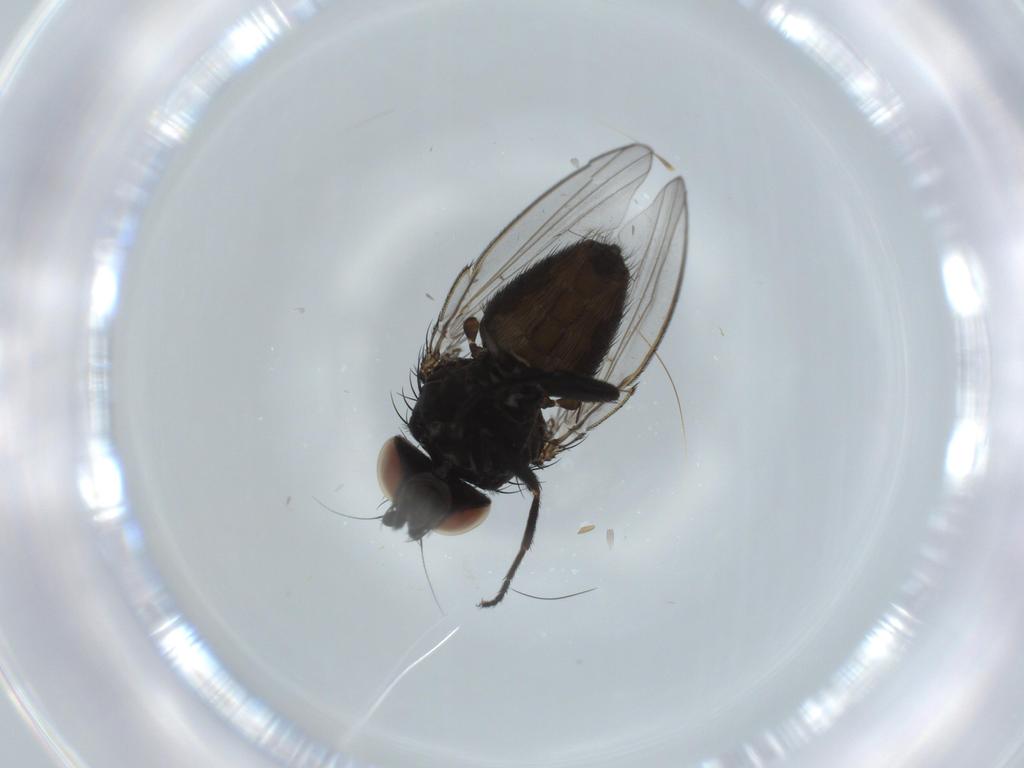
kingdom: Animalia
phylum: Arthropoda
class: Insecta
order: Diptera
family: Milichiidae
